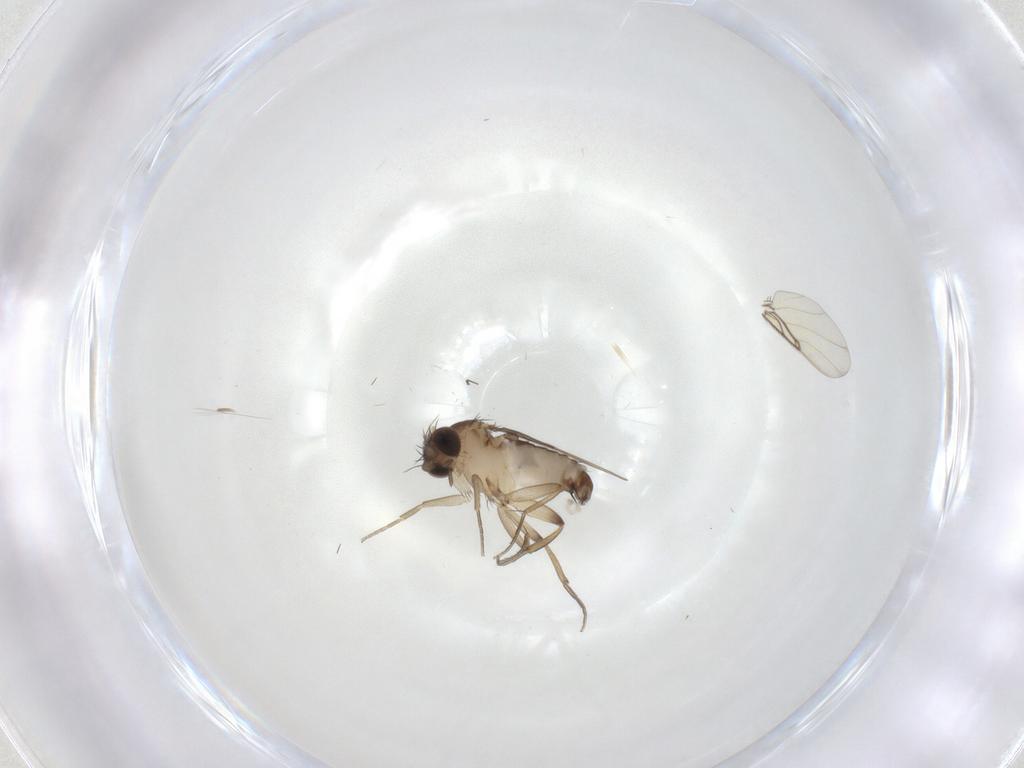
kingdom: Animalia
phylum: Arthropoda
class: Insecta
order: Diptera
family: Phoridae
